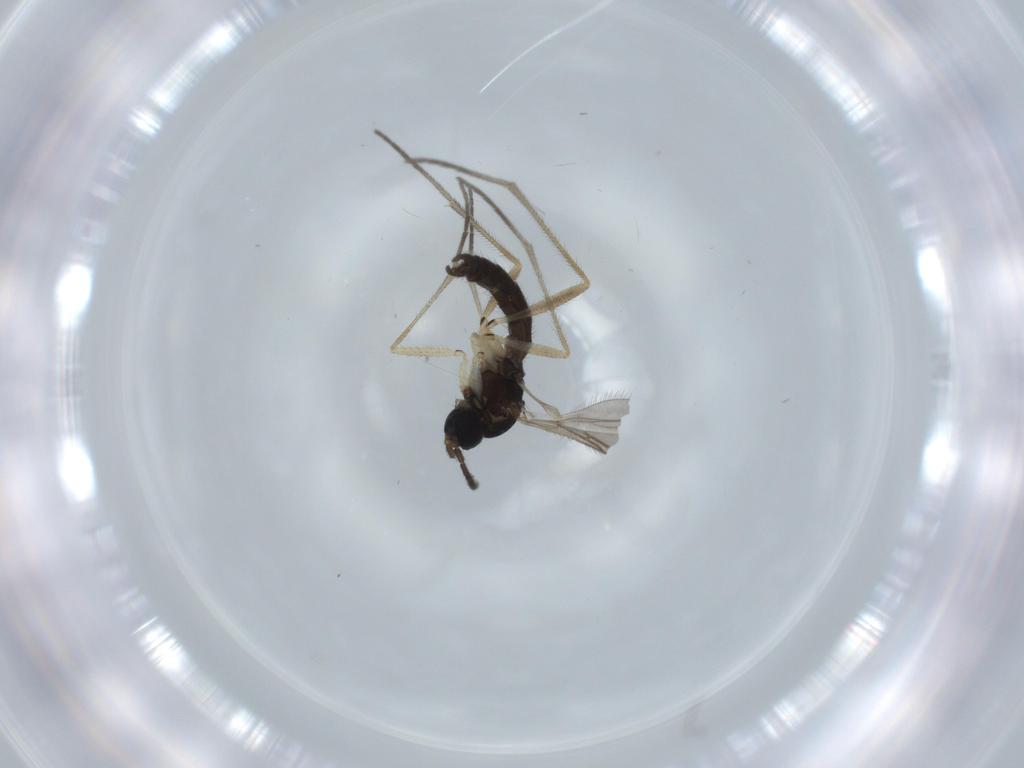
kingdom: Animalia
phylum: Arthropoda
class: Insecta
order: Diptera
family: Sciaridae
